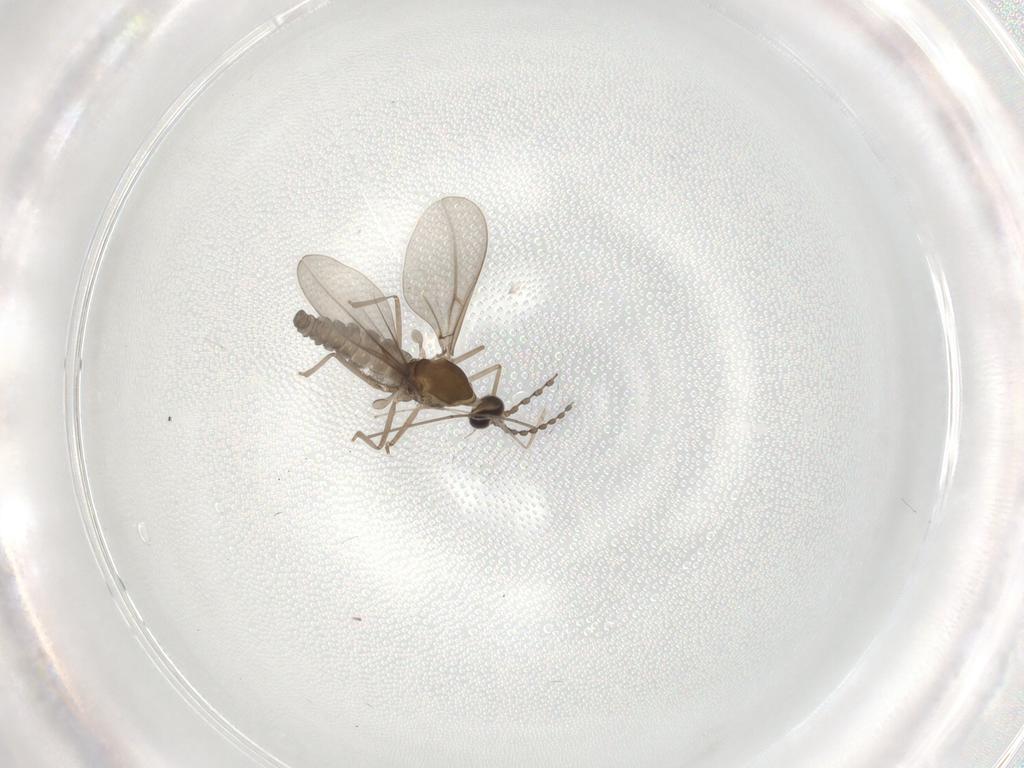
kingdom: Animalia
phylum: Arthropoda
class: Insecta
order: Diptera
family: Cecidomyiidae
